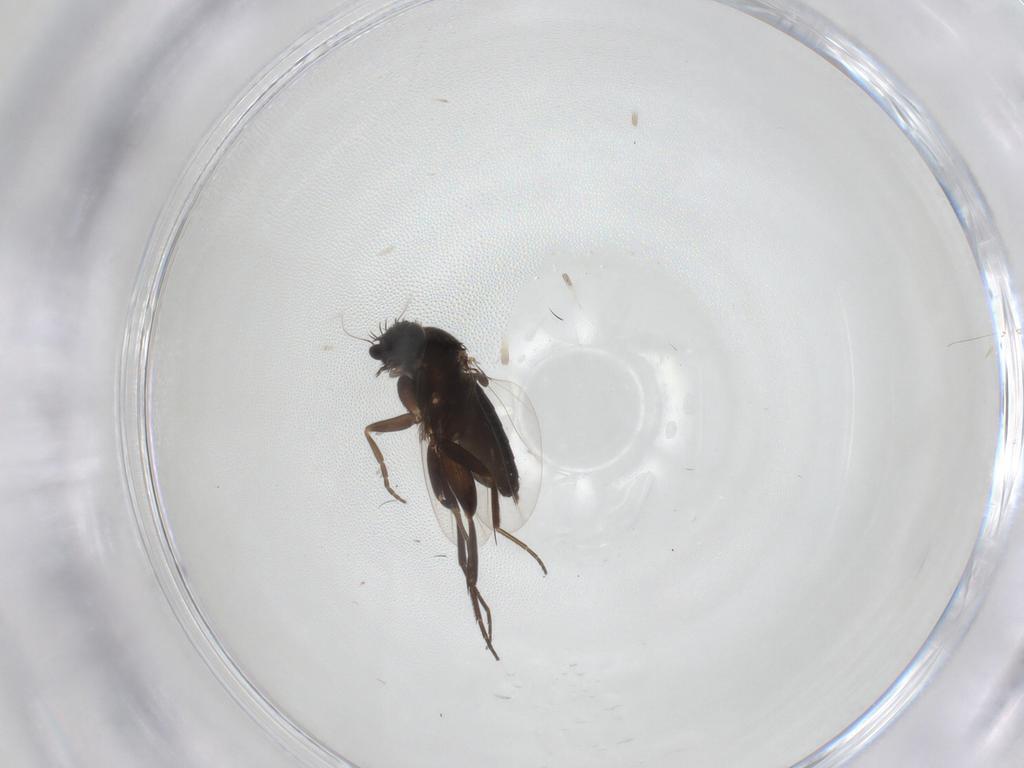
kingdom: Animalia
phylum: Arthropoda
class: Insecta
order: Diptera
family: Phoridae
